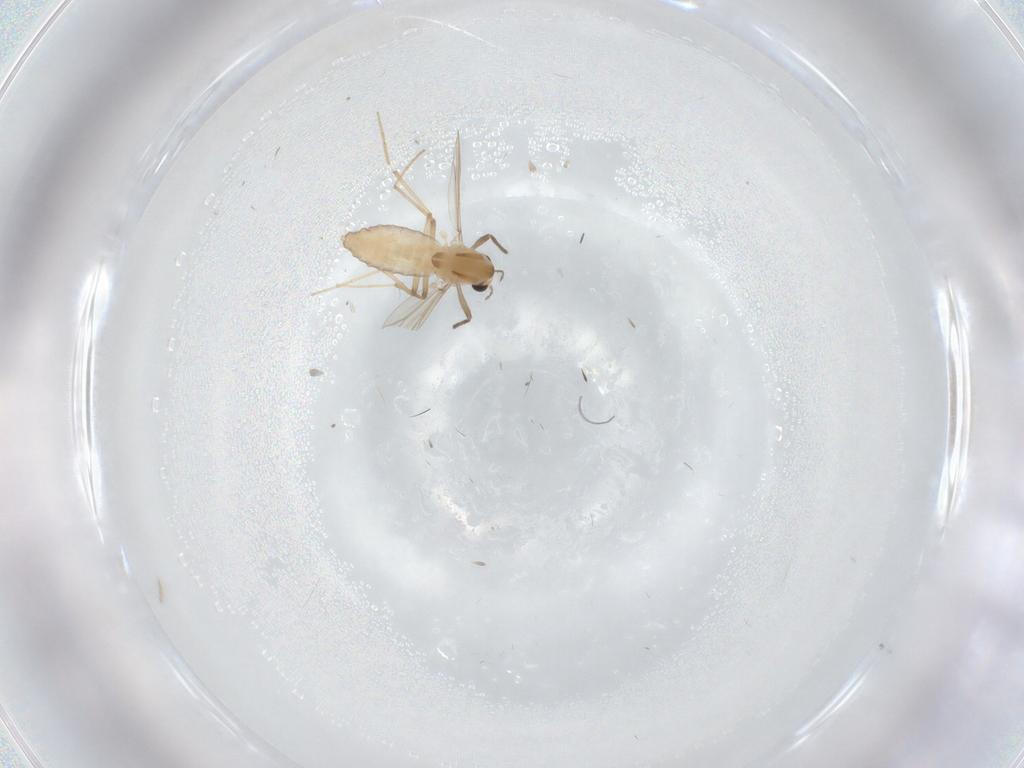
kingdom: Animalia
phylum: Arthropoda
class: Insecta
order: Diptera
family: Chironomidae
